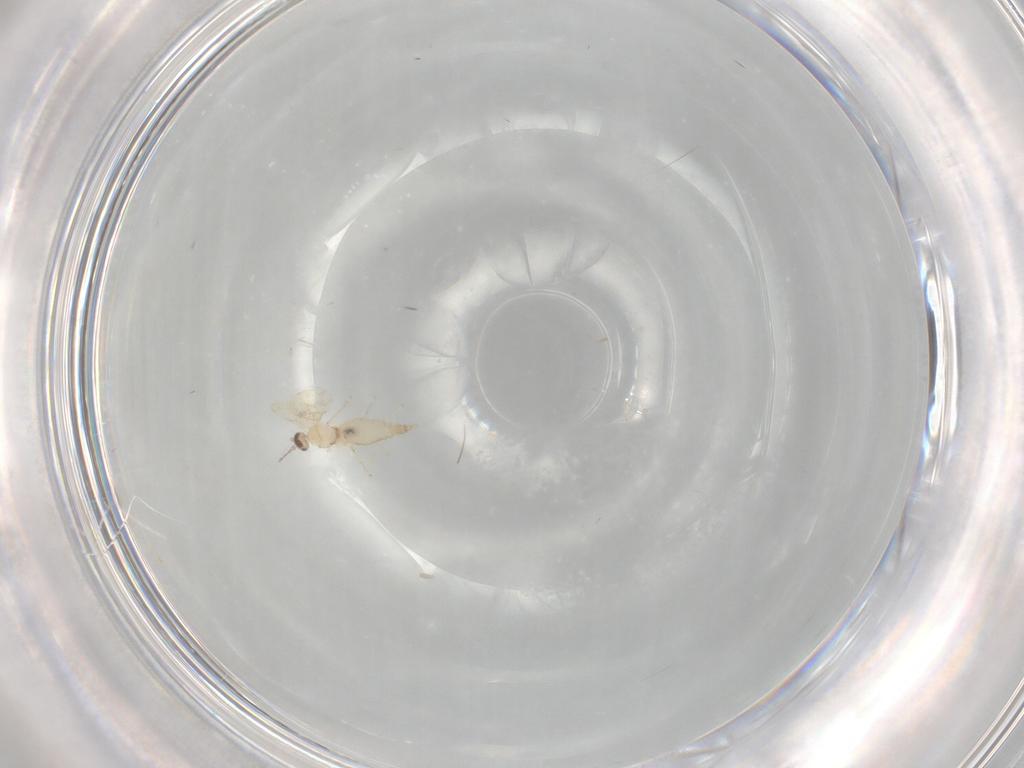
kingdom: Animalia
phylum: Arthropoda
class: Insecta
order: Diptera
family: Cecidomyiidae
